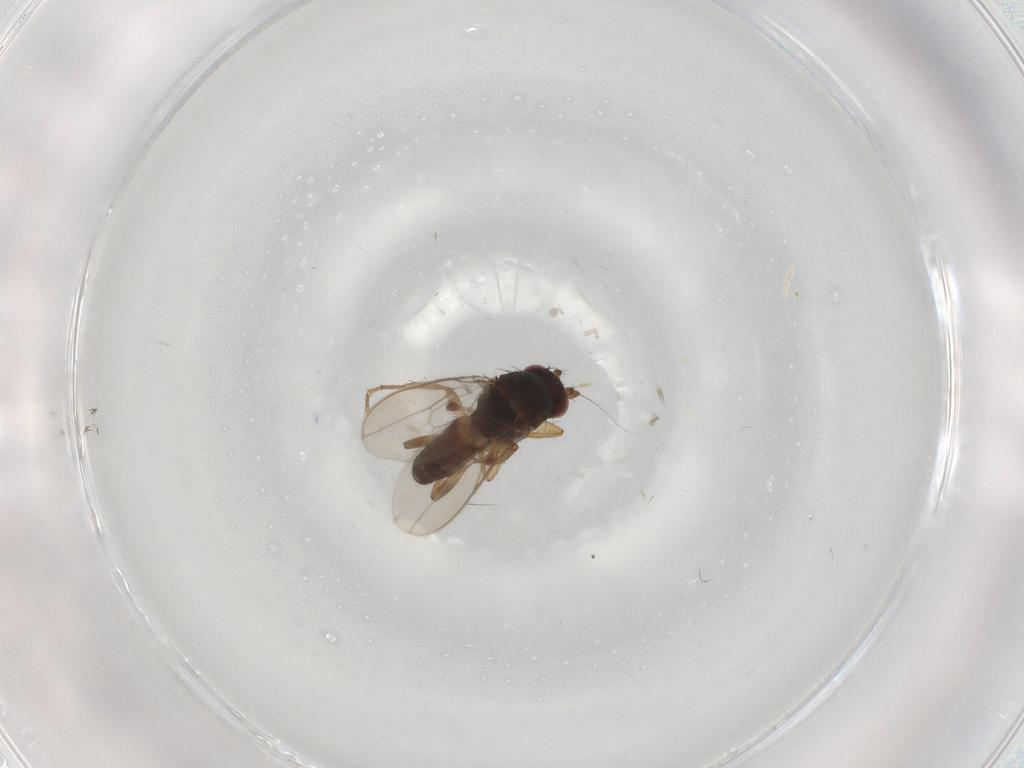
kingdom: Animalia
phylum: Arthropoda
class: Insecta
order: Diptera
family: Chironomidae
